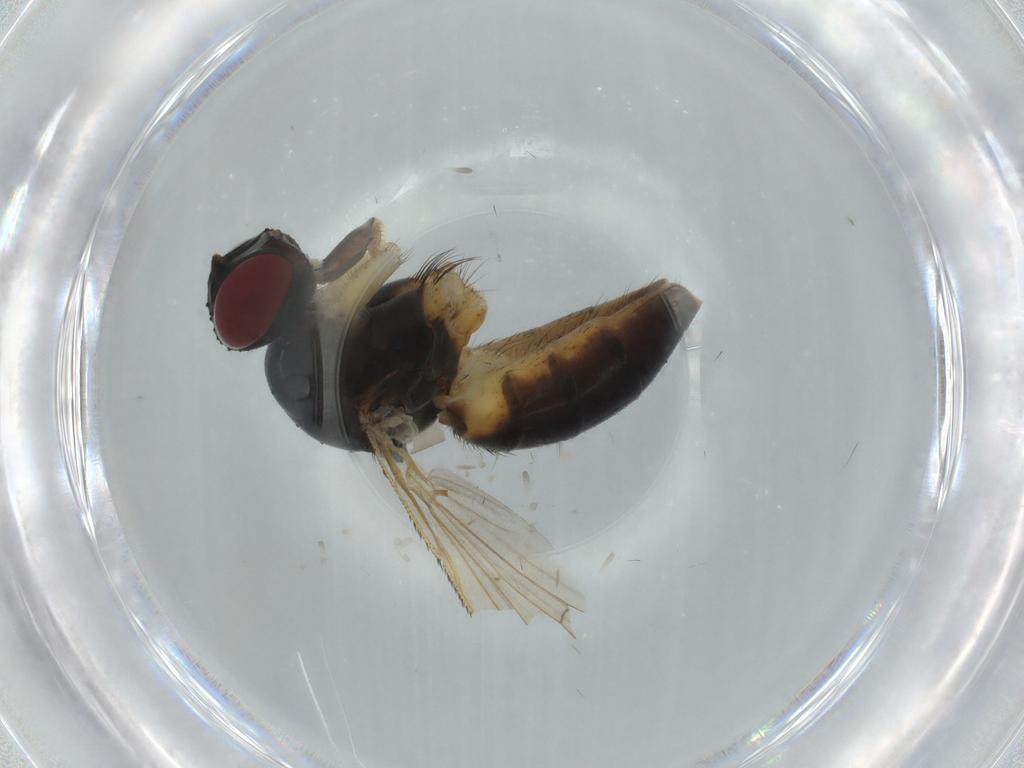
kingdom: Animalia
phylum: Arthropoda
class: Insecta
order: Diptera
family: Muscidae
